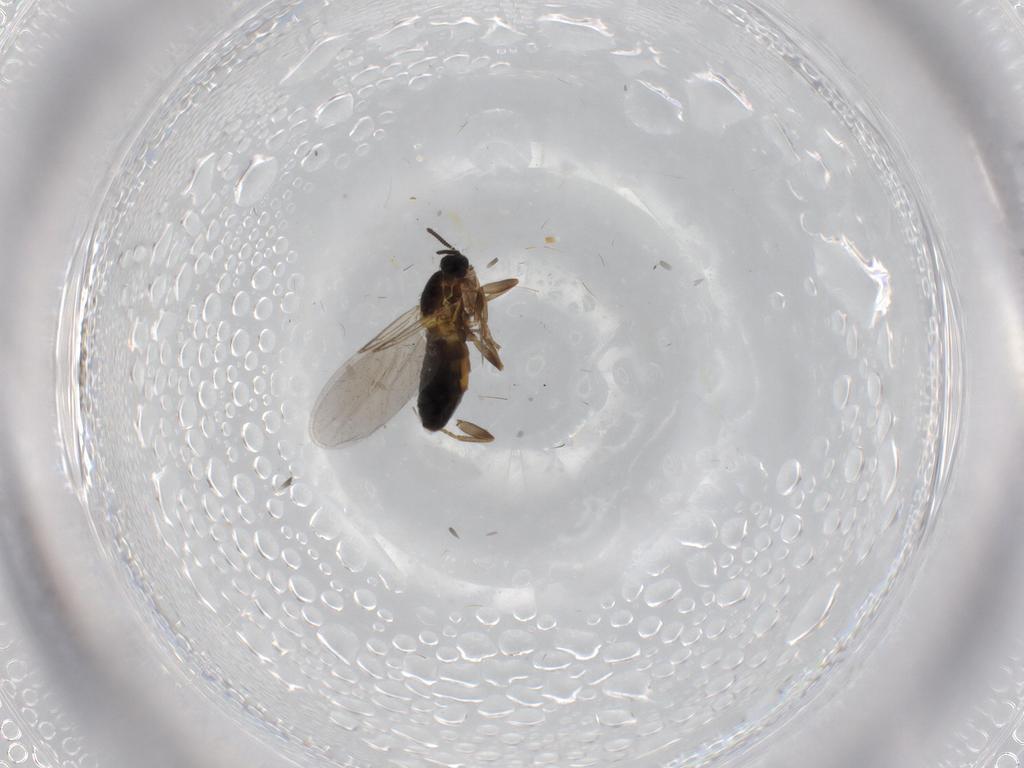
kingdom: Animalia
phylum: Arthropoda
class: Insecta
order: Diptera
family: Scatopsidae
